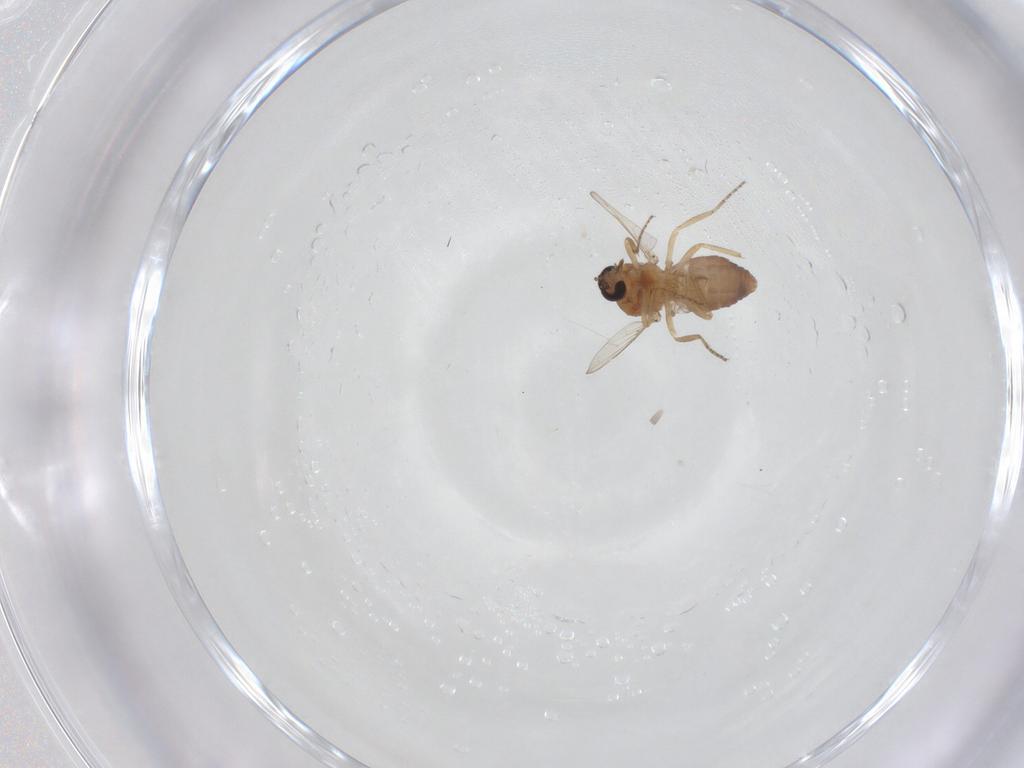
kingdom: Animalia
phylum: Arthropoda
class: Insecta
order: Diptera
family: Ceratopogonidae
